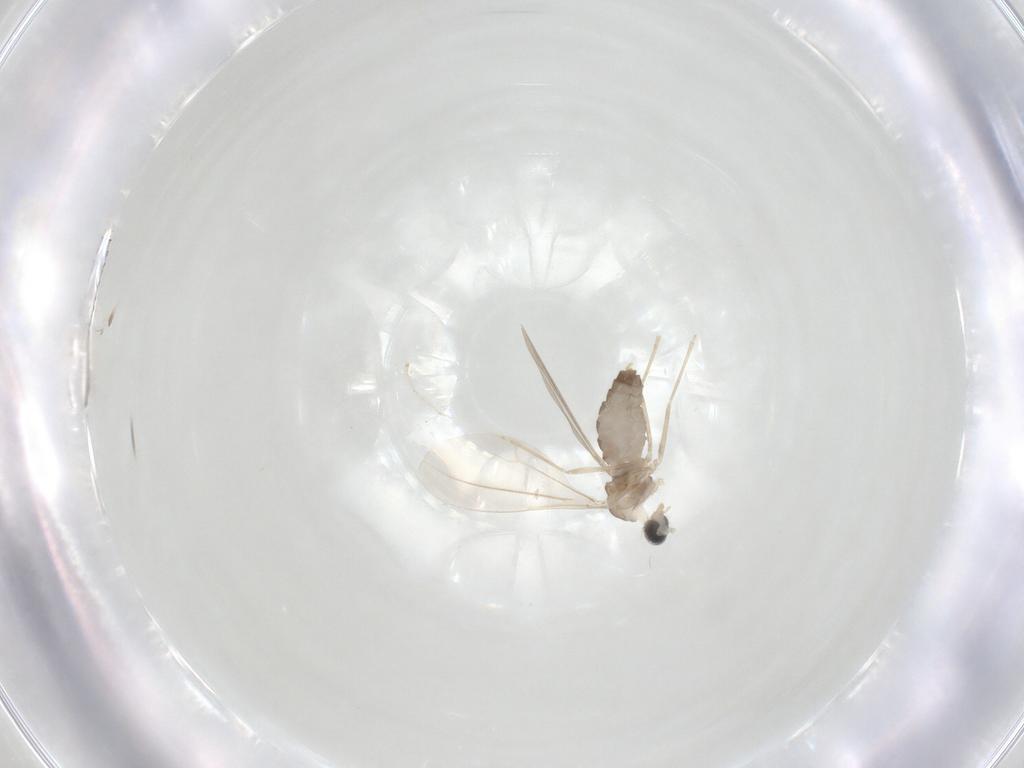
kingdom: Animalia
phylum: Arthropoda
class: Insecta
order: Diptera
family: Cecidomyiidae
